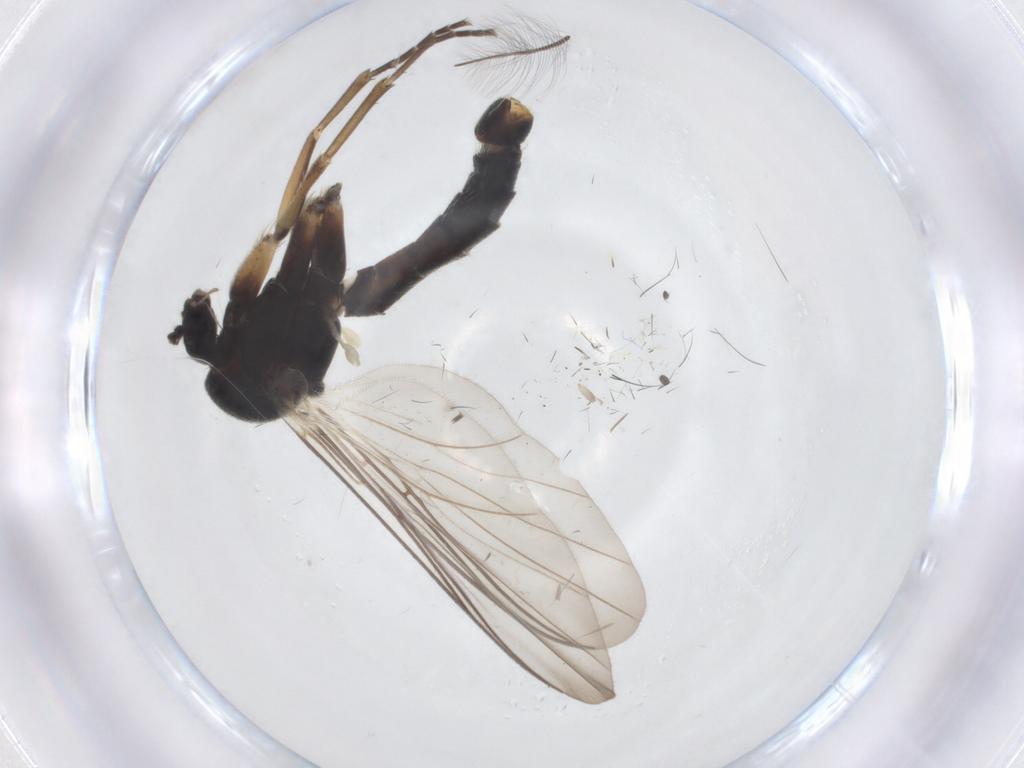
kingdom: Animalia
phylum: Arthropoda
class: Insecta
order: Diptera
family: Mycetophilidae
